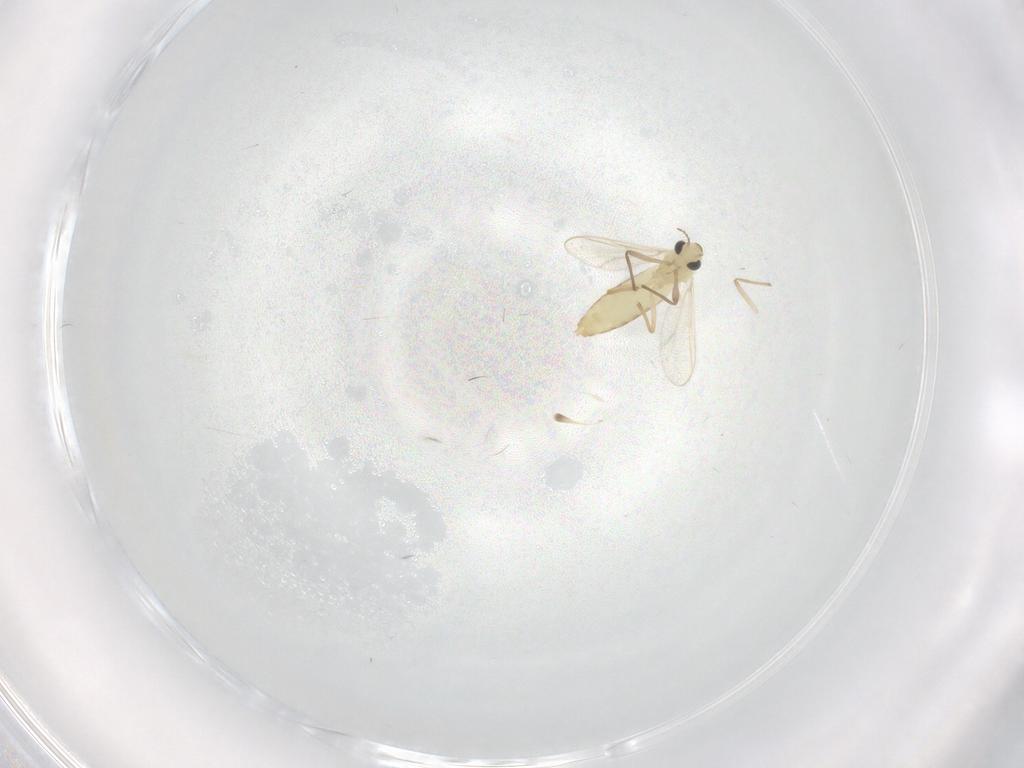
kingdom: Animalia
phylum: Arthropoda
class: Insecta
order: Diptera
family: Chironomidae
